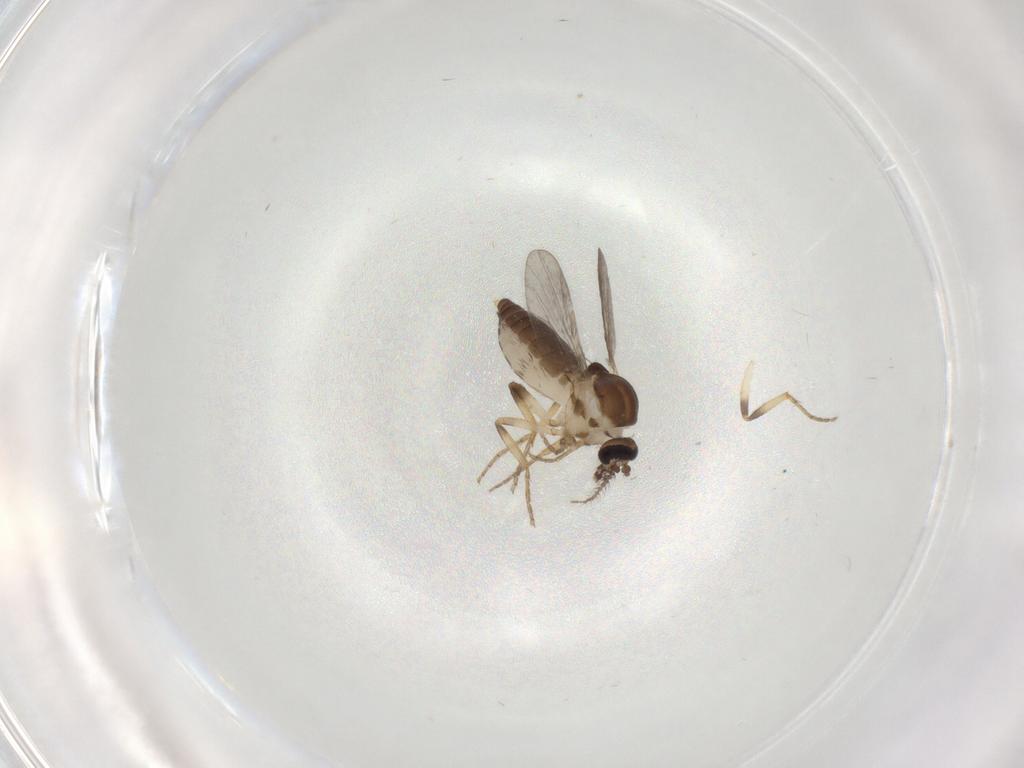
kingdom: Animalia
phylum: Arthropoda
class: Insecta
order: Diptera
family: Ceratopogonidae
